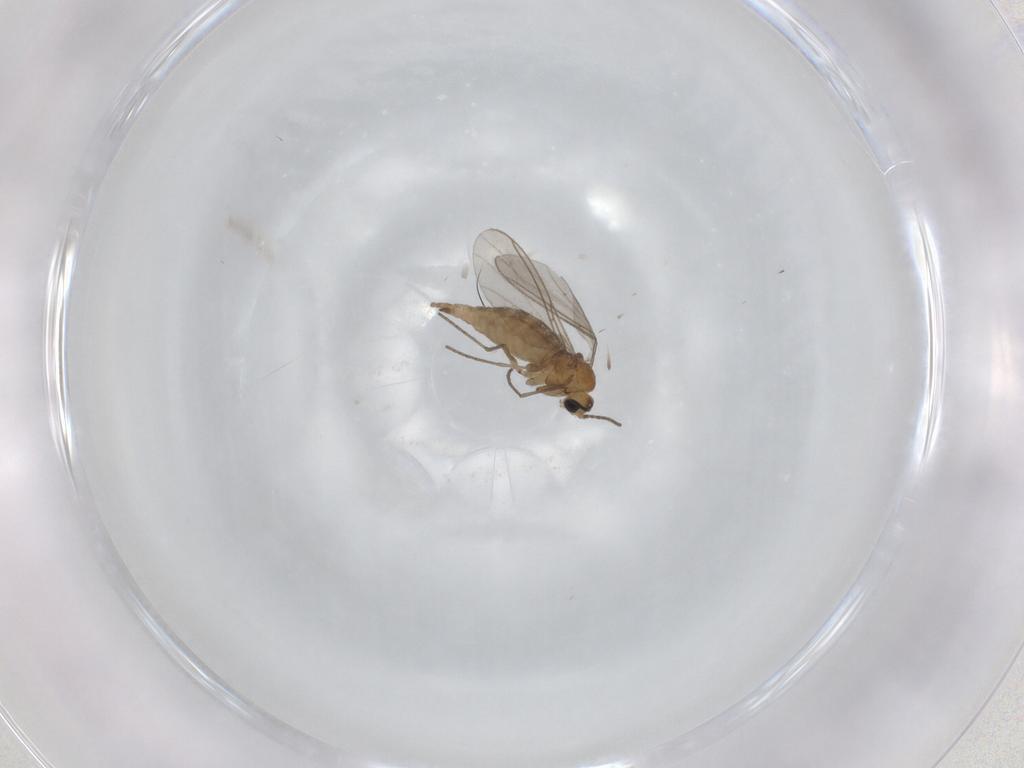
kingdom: Animalia
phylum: Arthropoda
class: Insecta
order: Diptera
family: Sciaridae
